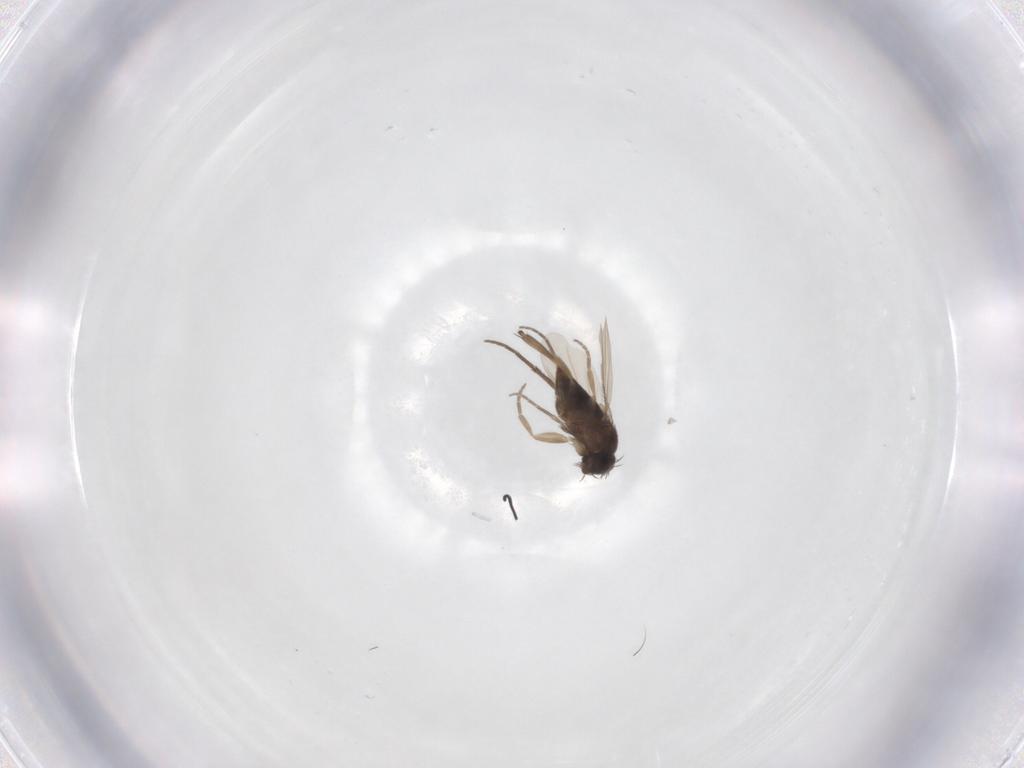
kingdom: Animalia
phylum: Arthropoda
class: Insecta
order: Diptera
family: Phoridae
